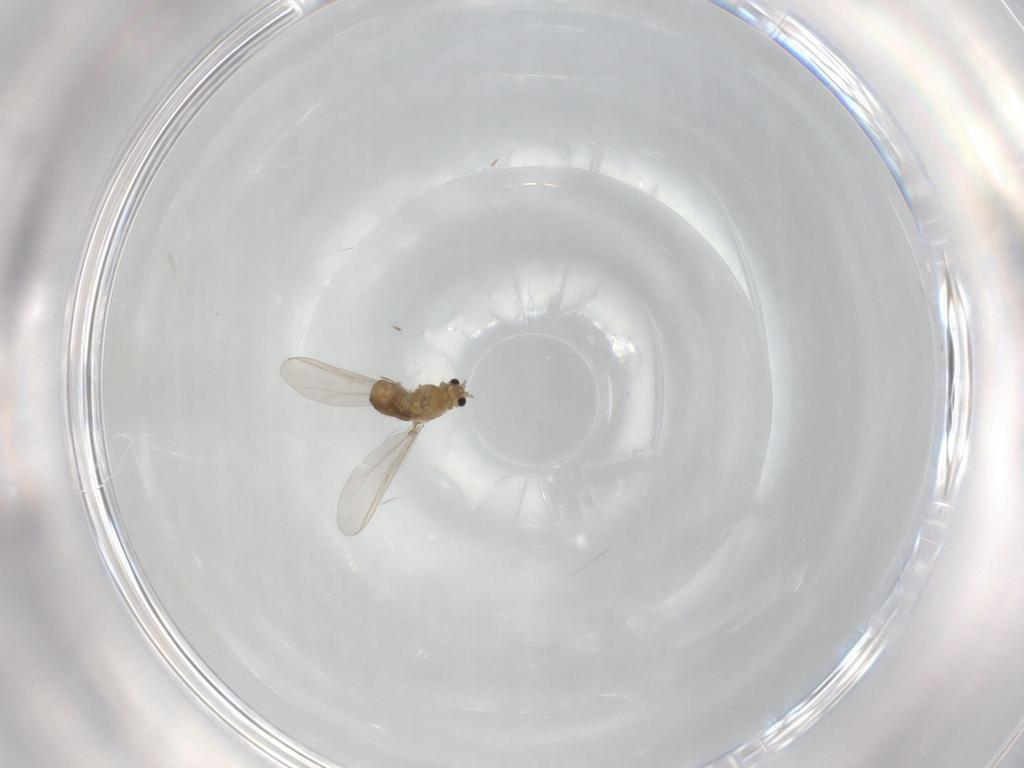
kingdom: Animalia
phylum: Arthropoda
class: Insecta
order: Diptera
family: Chironomidae
